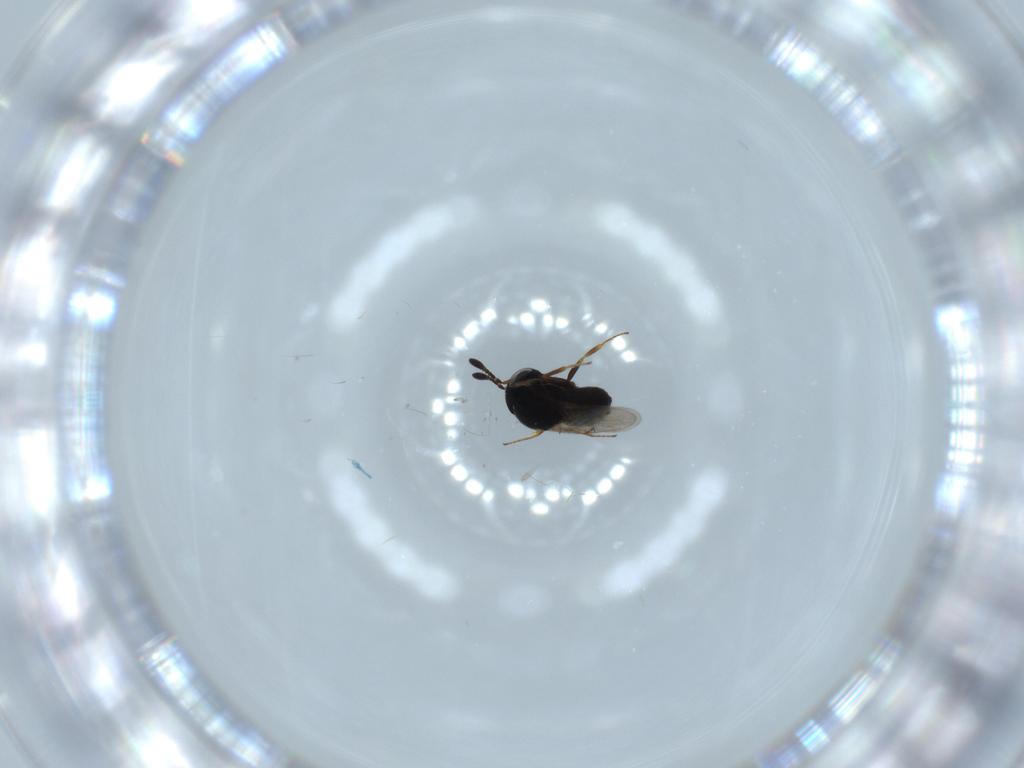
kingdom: Animalia
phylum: Arthropoda
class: Insecta
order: Hymenoptera
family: Scelionidae
